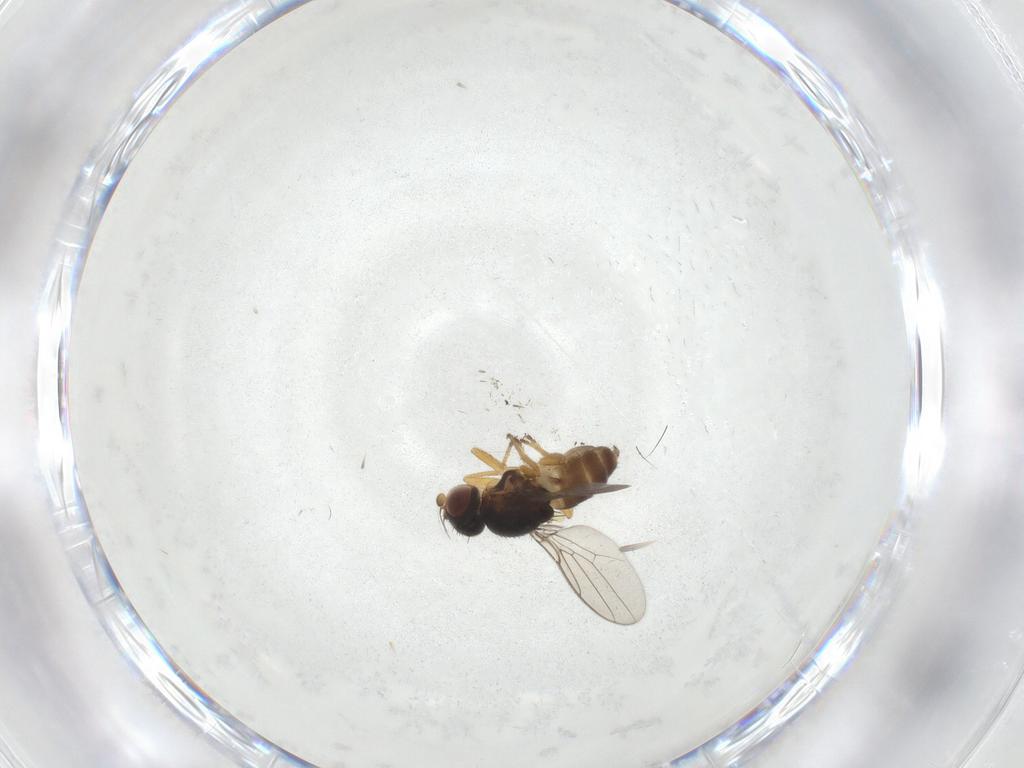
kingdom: Animalia
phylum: Arthropoda
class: Insecta
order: Diptera
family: Chloropidae
